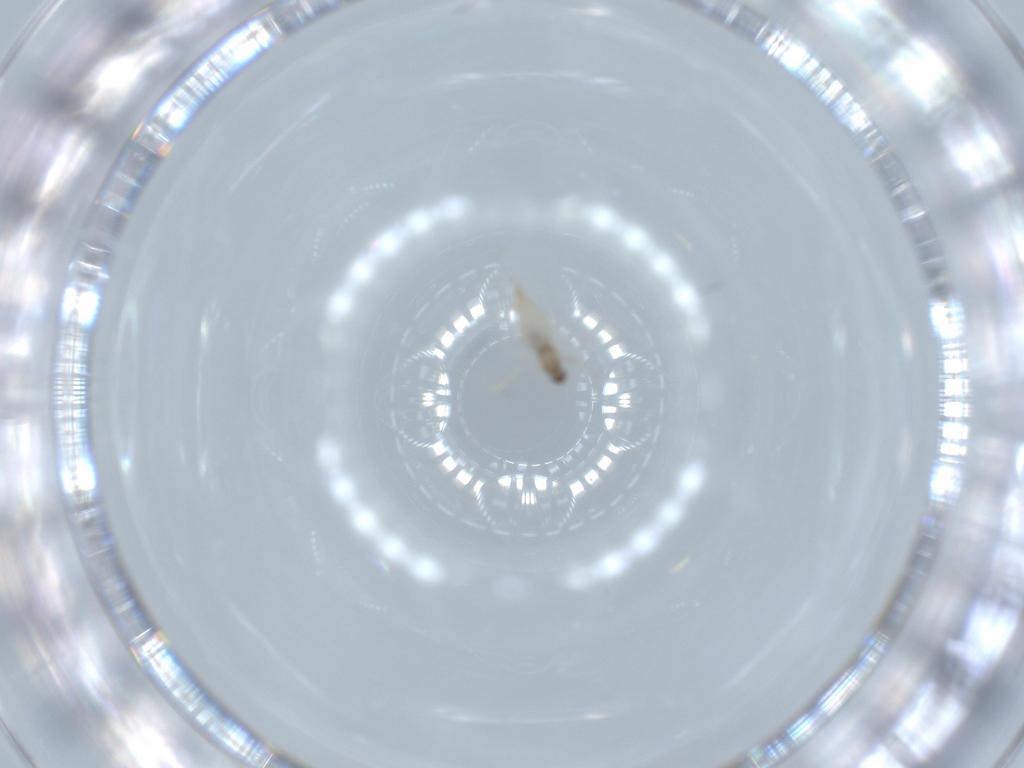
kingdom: Animalia
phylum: Arthropoda
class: Insecta
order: Diptera
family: Cecidomyiidae
